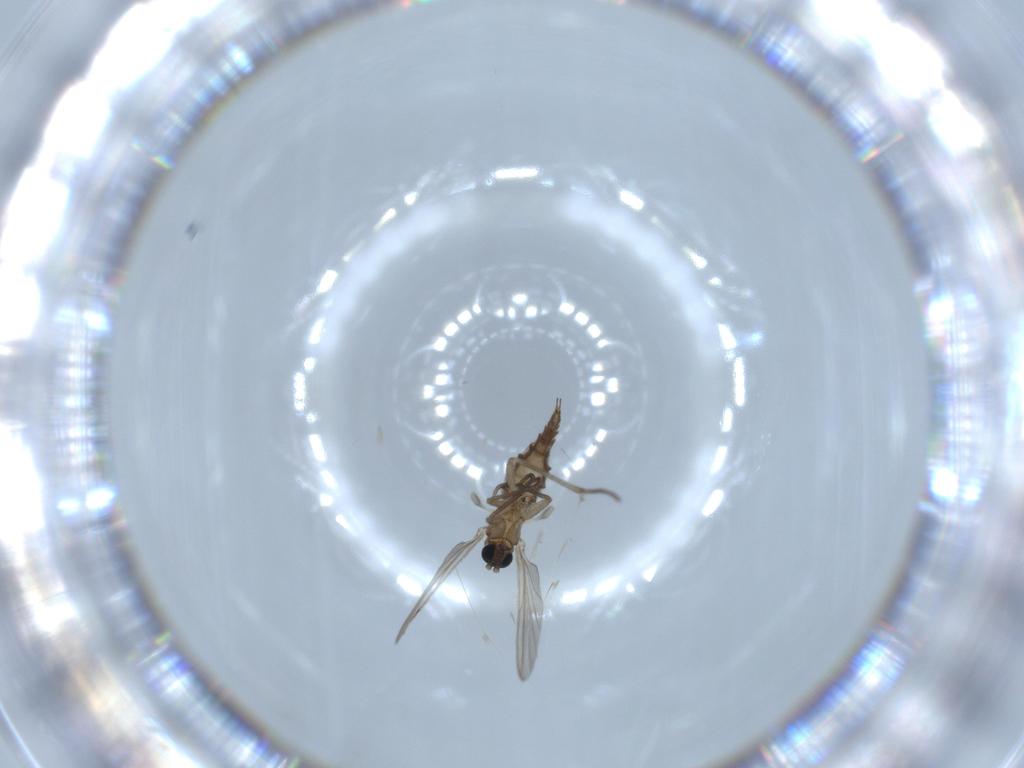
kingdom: Animalia
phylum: Arthropoda
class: Insecta
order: Diptera
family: Sciaridae
